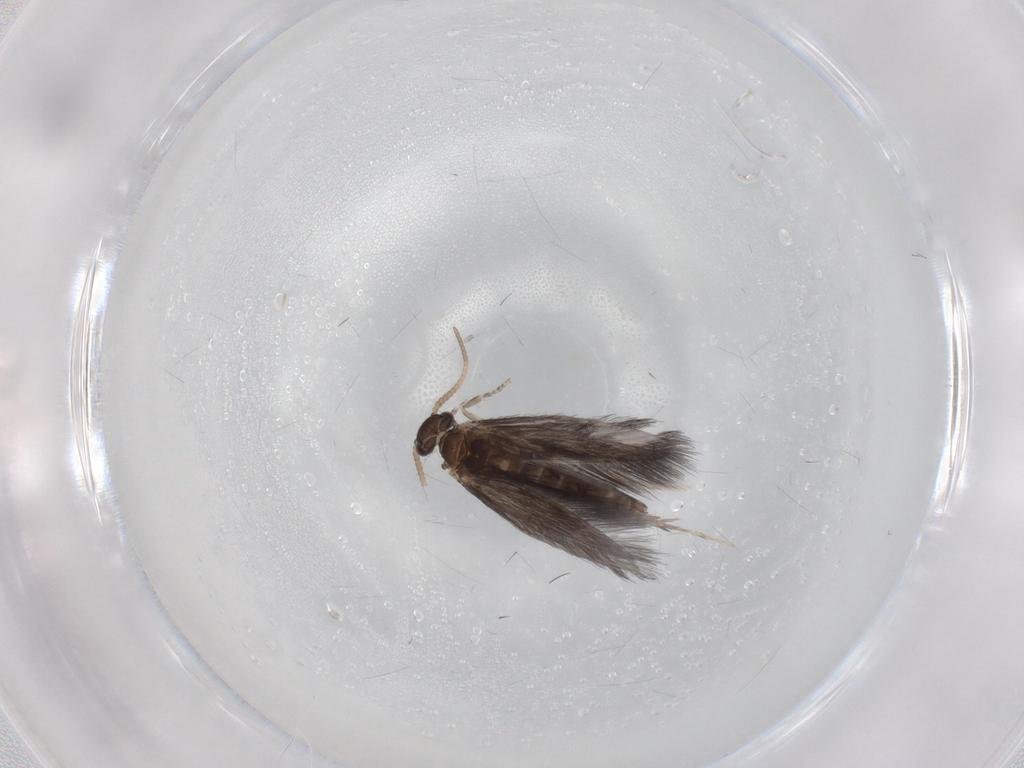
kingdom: Animalia
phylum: Arthropoda
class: Insecta
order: Trichoptera
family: Hydroptilidae
